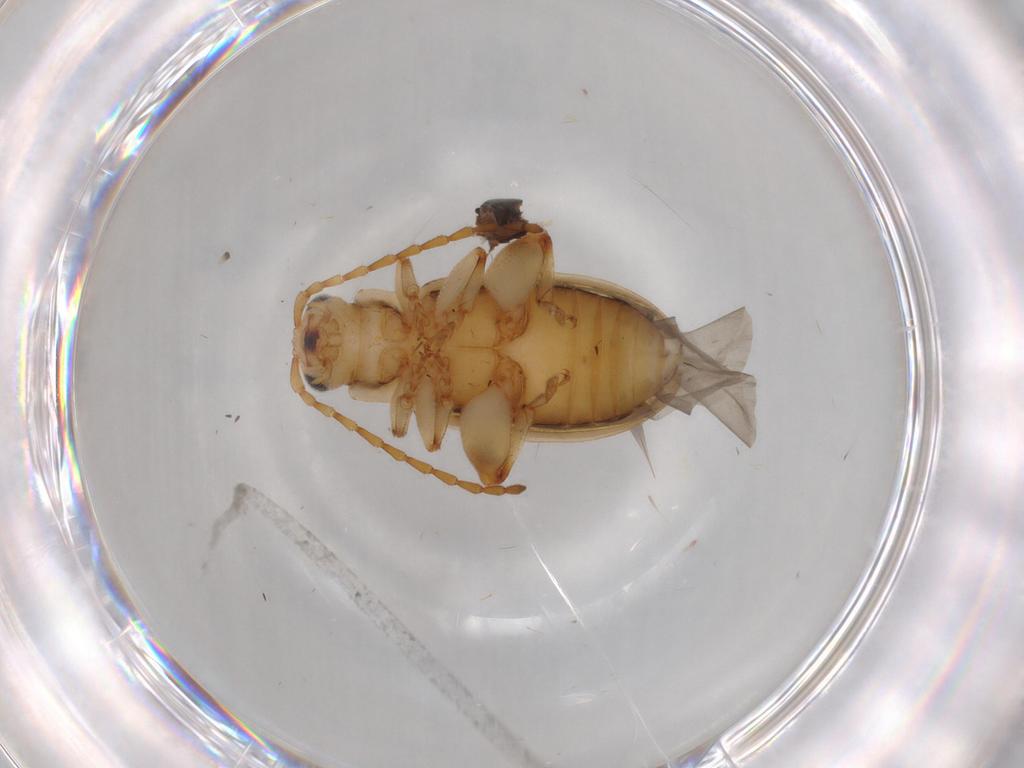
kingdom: Animalia
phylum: Arthropoda
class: Insecta
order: Coleoptera
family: Chrysomelidae
